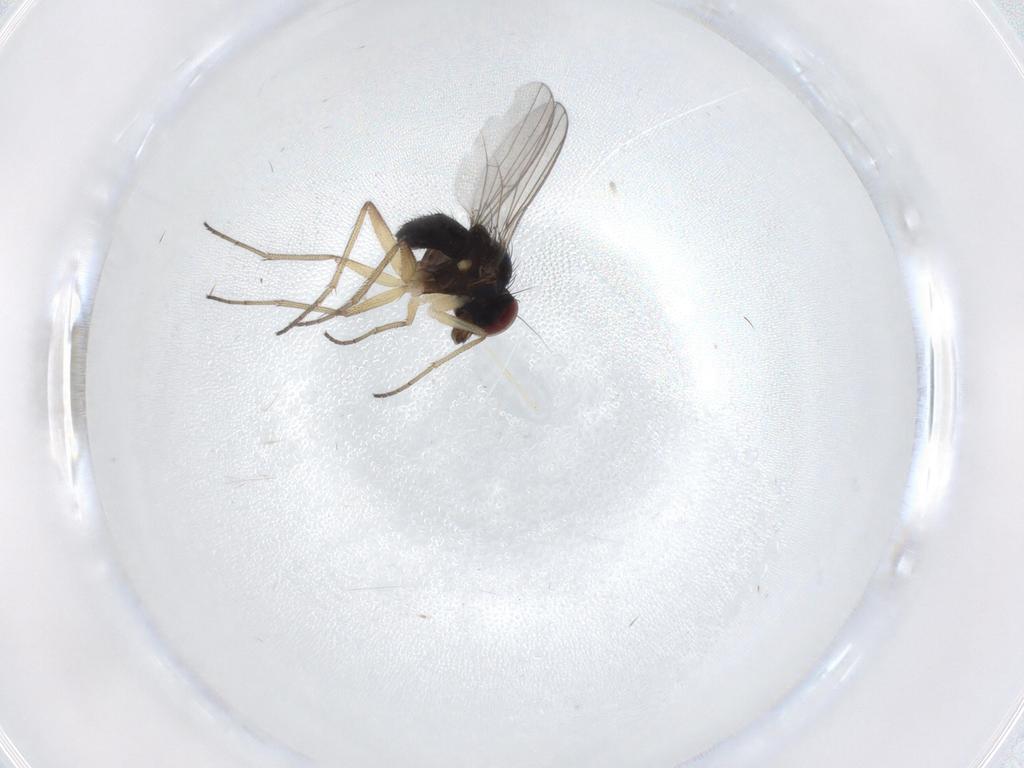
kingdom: Animalia
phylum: Arthropoda
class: Insecta
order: Diptera
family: Dolichopodidae
